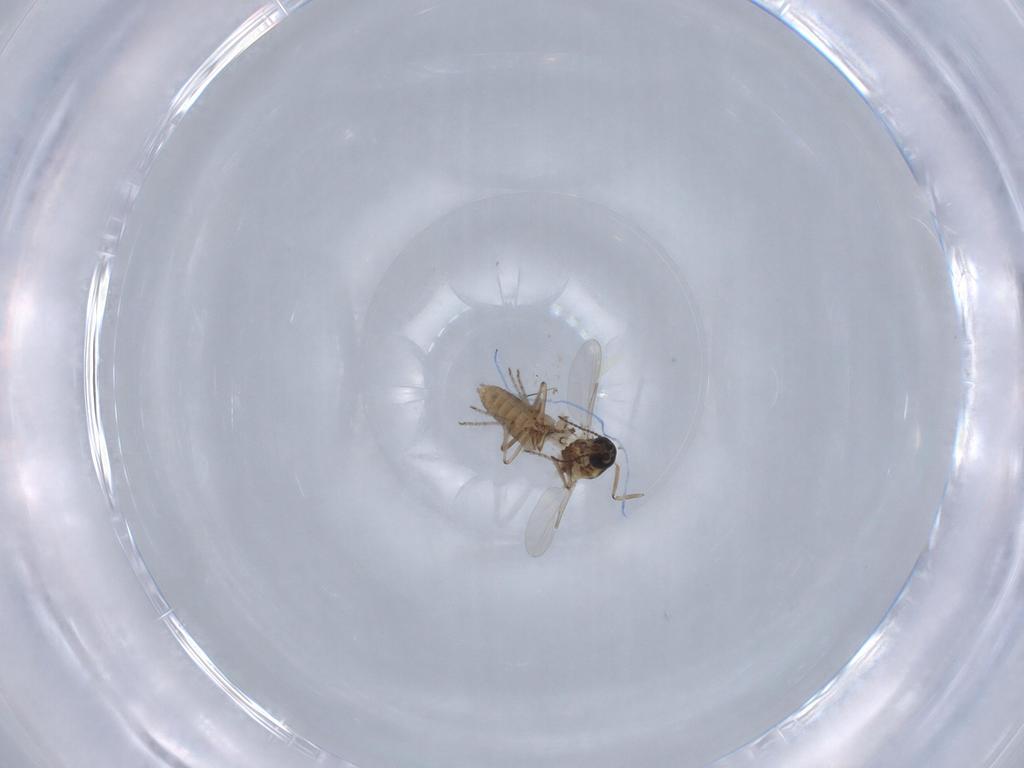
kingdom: Animalia
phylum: Arthropoda
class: Insecta
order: Diptera
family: Ceratopogonidae
